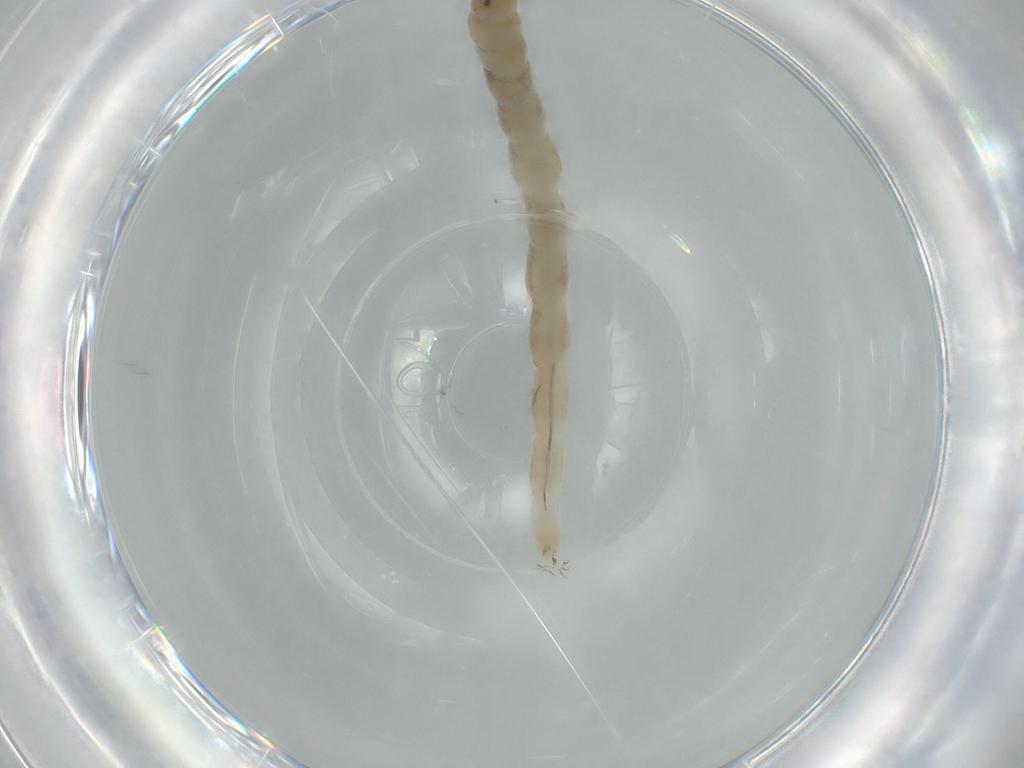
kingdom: Animalia
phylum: Arthropoda
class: Insecta
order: Diptera
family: Ceratopogonidae
